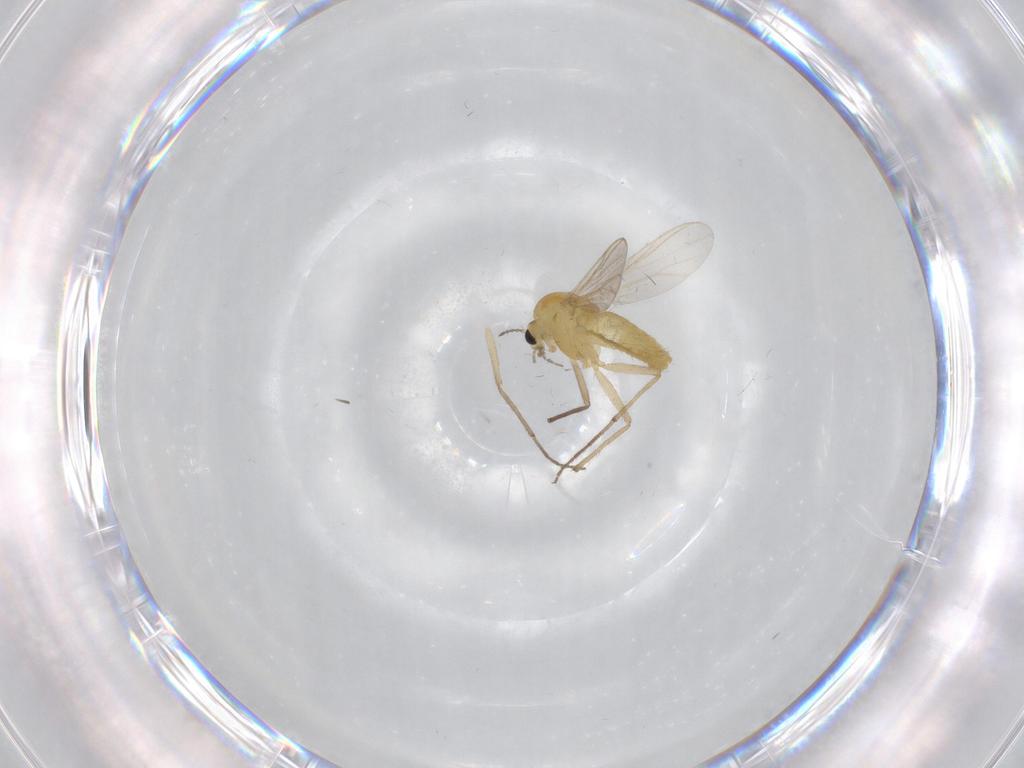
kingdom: Animalia
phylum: Arthropoda
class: Insecta
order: Diptera
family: Chironomidae
